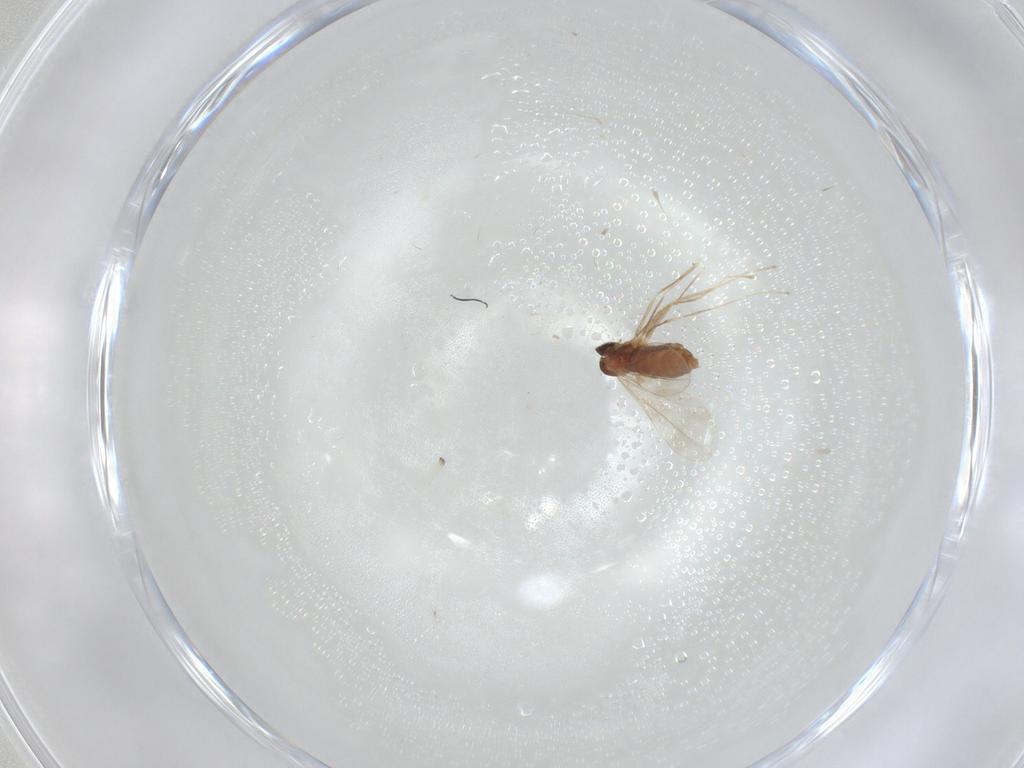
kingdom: Animalia
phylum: Arthropoda
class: Insecta
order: Diptera
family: Cecidomyiidae
